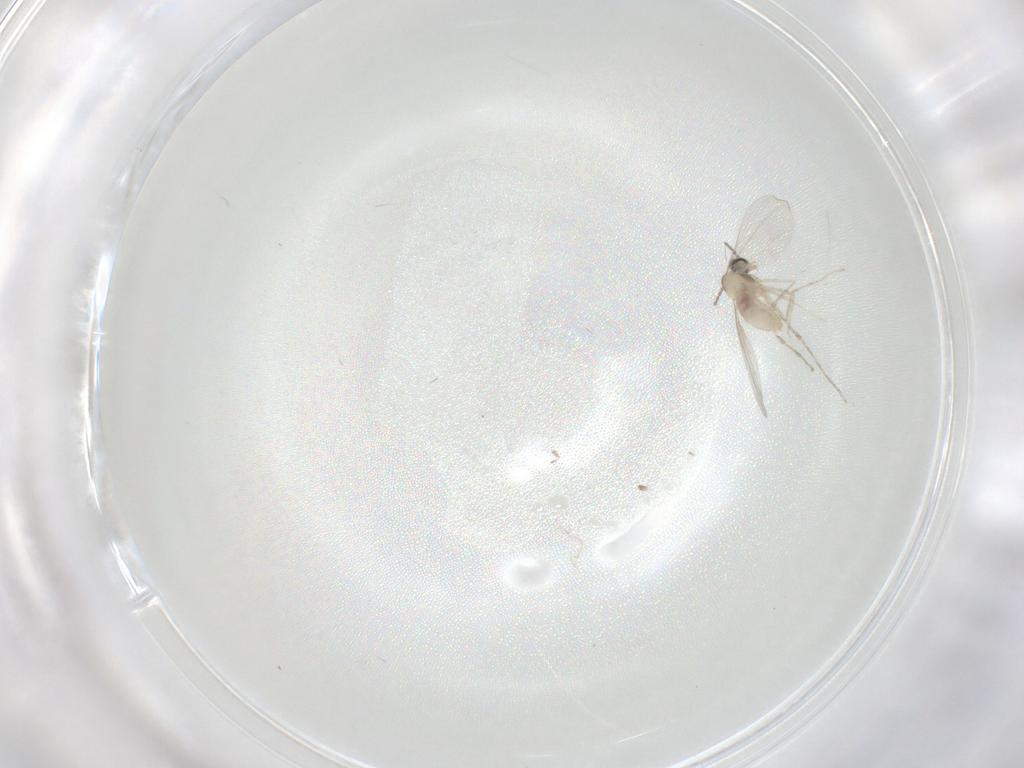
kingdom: Animalia
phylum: Arthropoda
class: Insecta
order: Diptera
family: Cecidomyiidae
